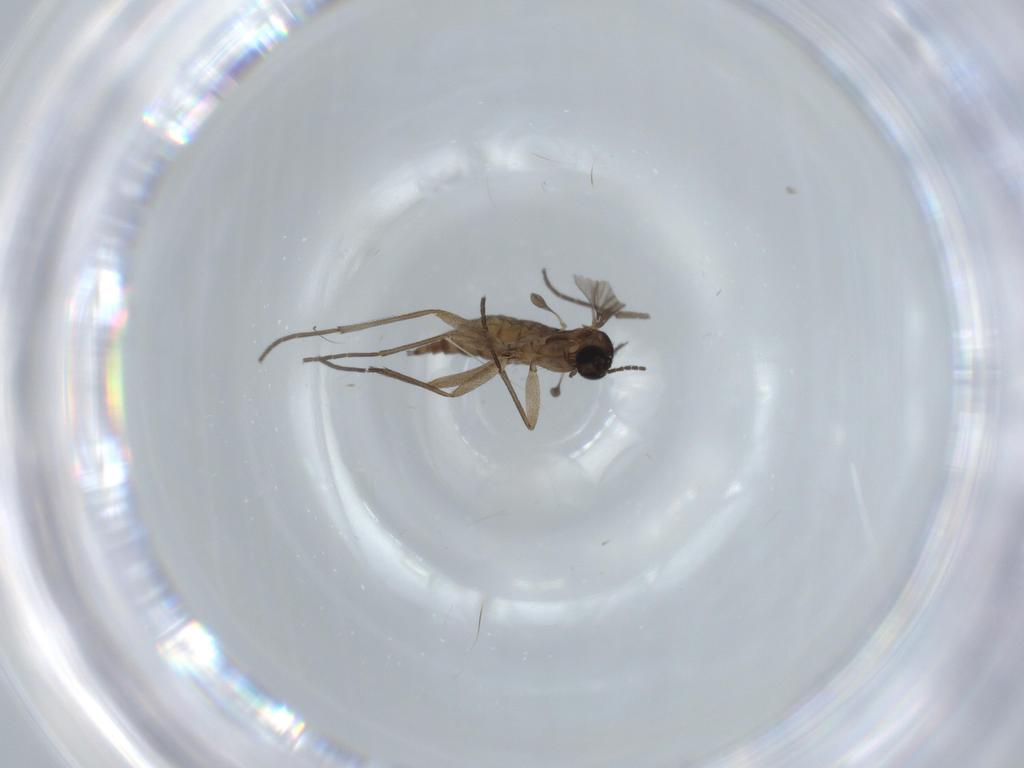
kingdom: Animalia
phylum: Arthropoda
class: Insecta
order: Diptera
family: Sciaridae
